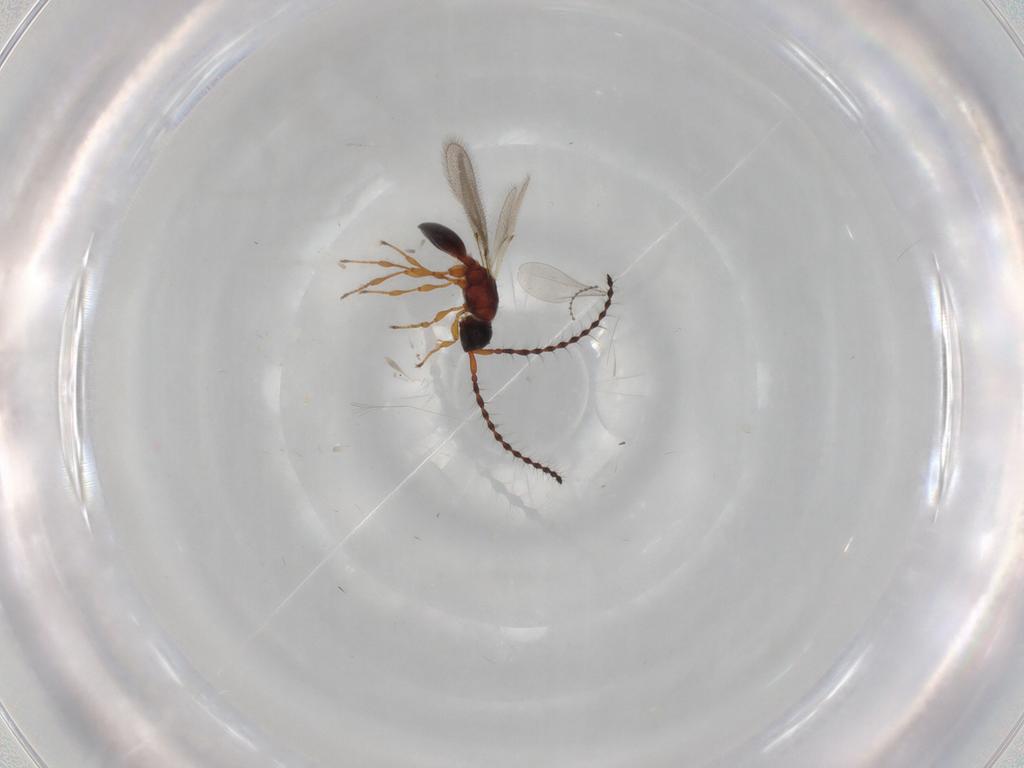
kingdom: Animalia
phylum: Arthropoda
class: Insecta
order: Hymenoptera
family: Diapriidae
